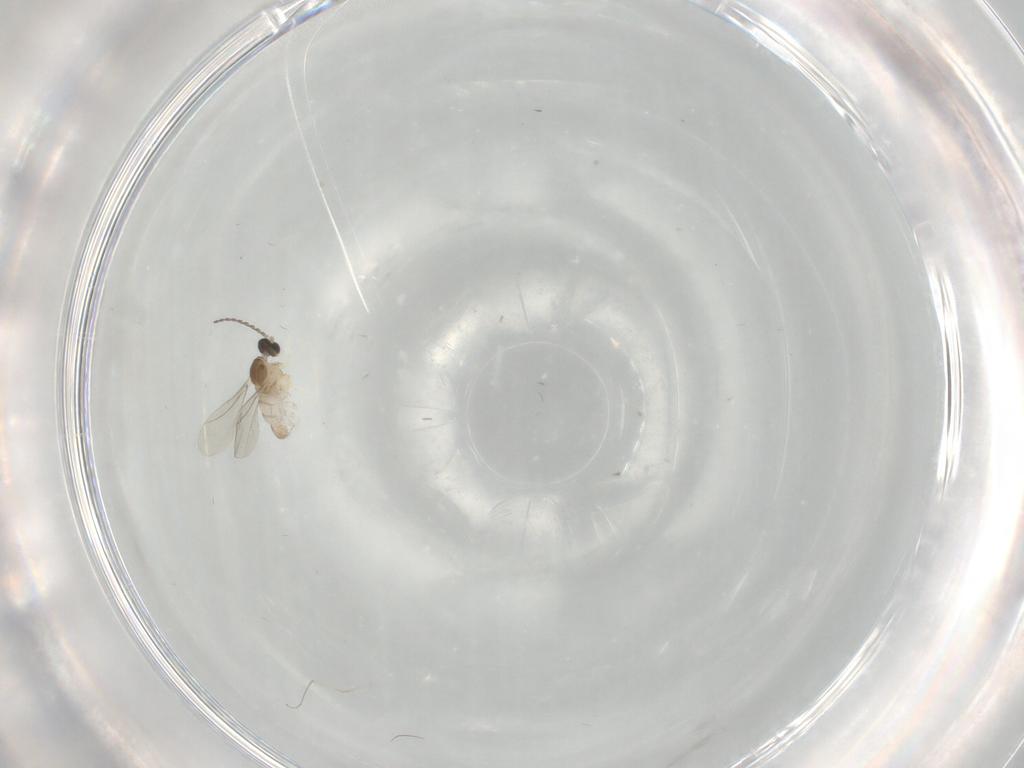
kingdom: Animalia
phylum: Arthropoda
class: Insecta
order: Diptera
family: Cecidomyiidae
